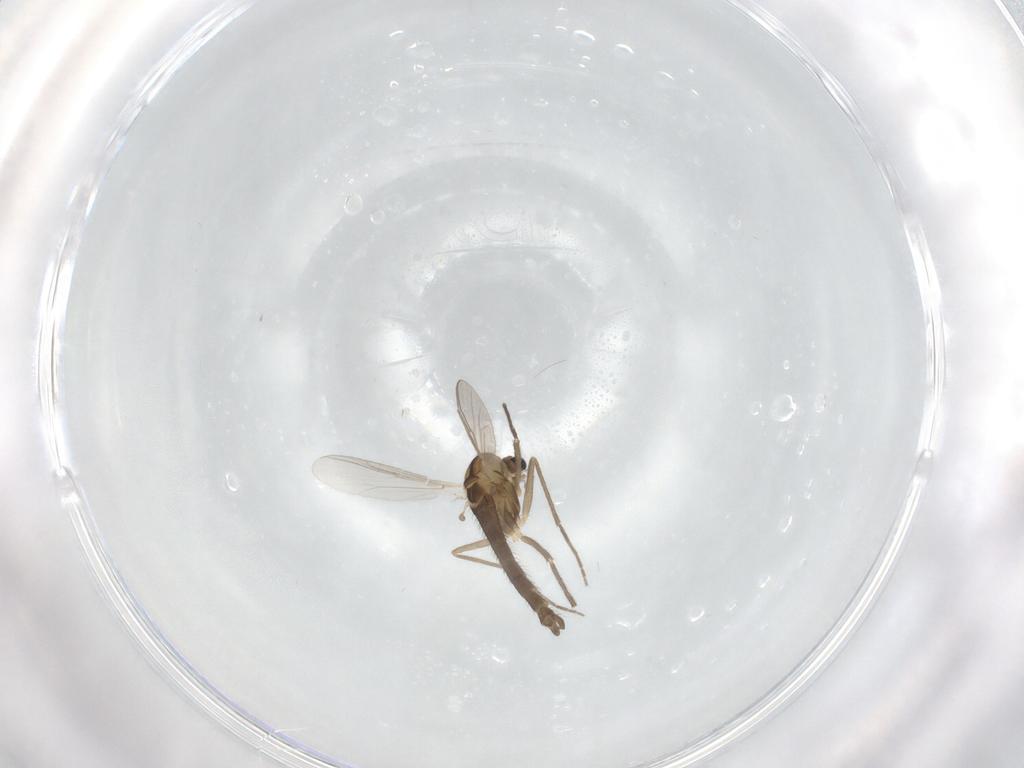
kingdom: Animalia
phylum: Arthropoda
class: Insecta
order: Diptera
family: Chironomidae
